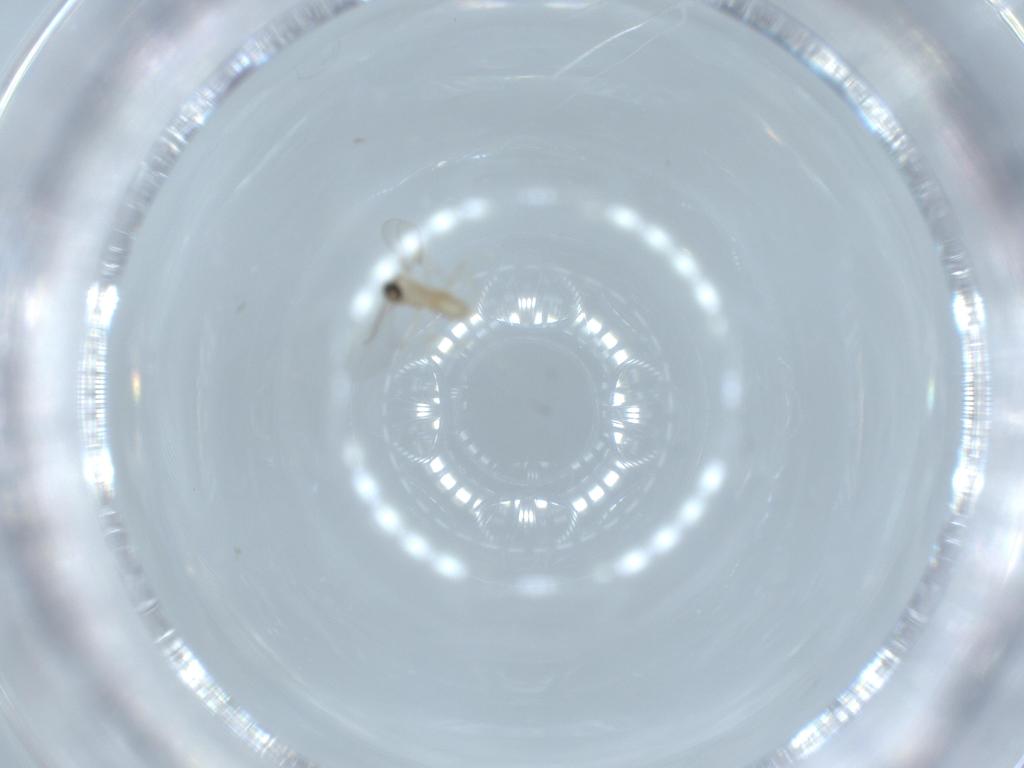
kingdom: Animalia
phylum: Arthropoda
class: Insecta
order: Diptera
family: Cecidomyiidae
